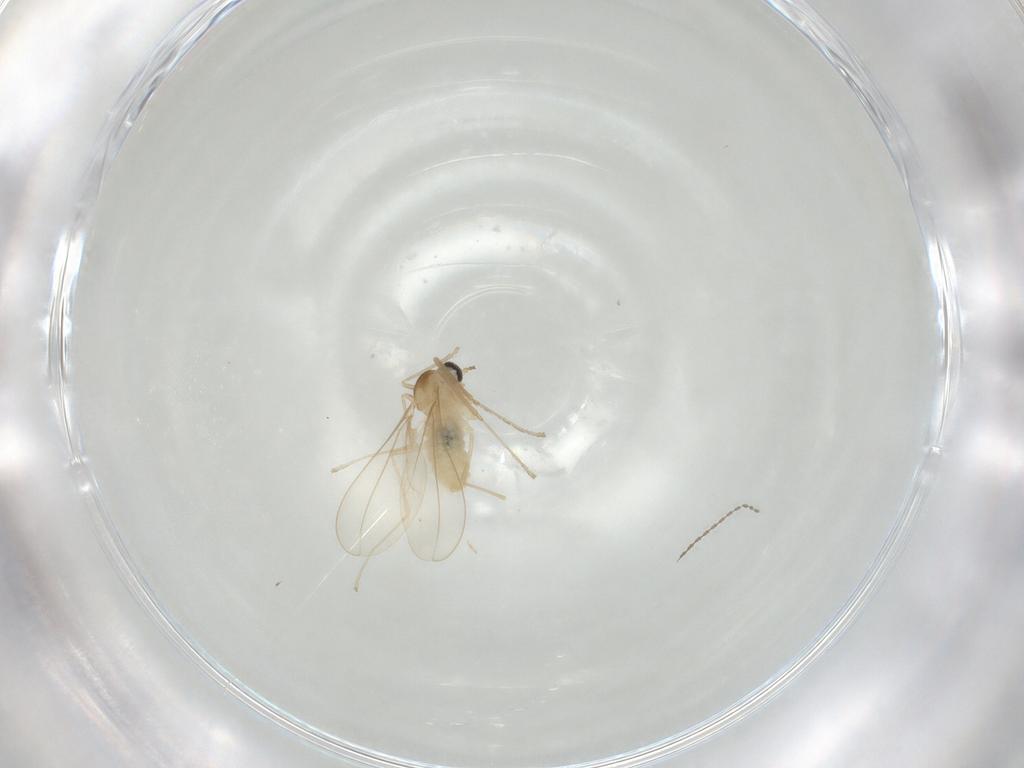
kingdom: Animalia
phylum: Arthropoda
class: Insecta
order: Diptera
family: Cecidomyiidae
